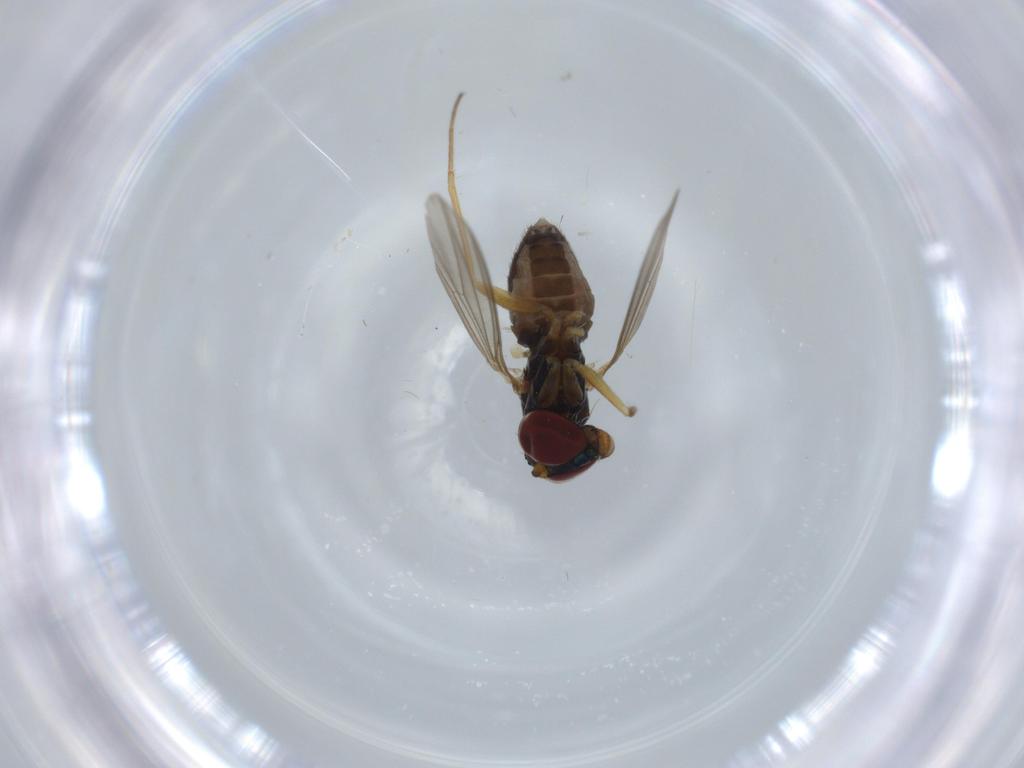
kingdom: Animalia
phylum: Arthropoda
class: Insecta
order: Diptera
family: Dolichopodidae
